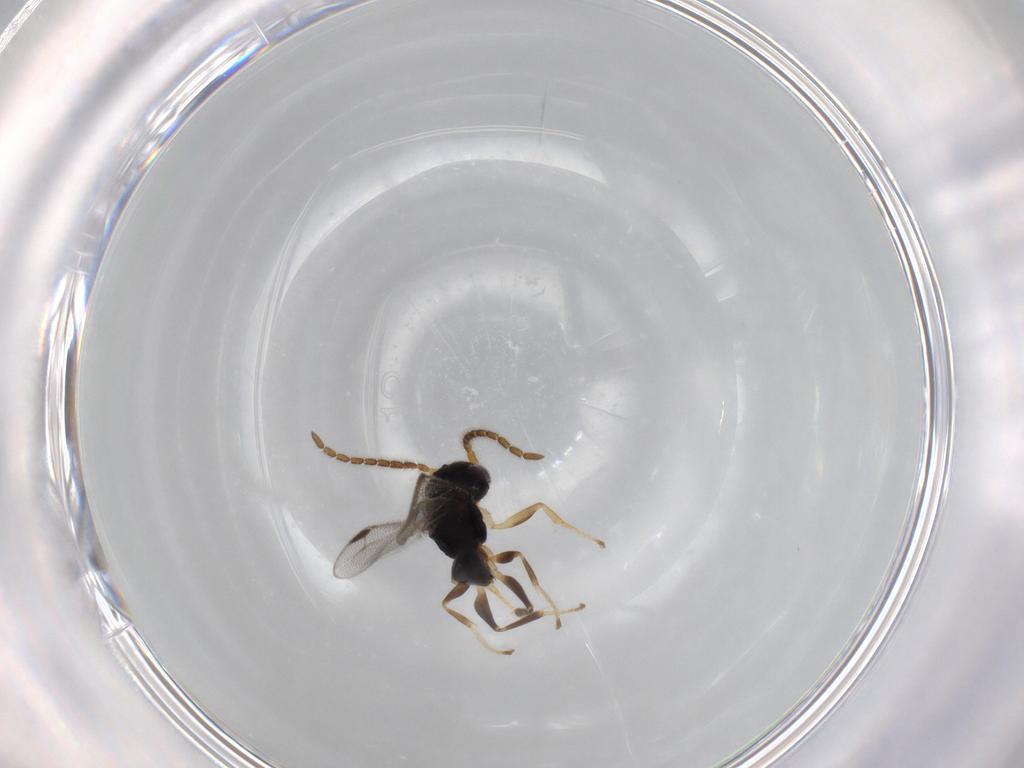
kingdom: Animalia
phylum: Arthropoda
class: Insecta
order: Hymenoptera
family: Dryinidae
